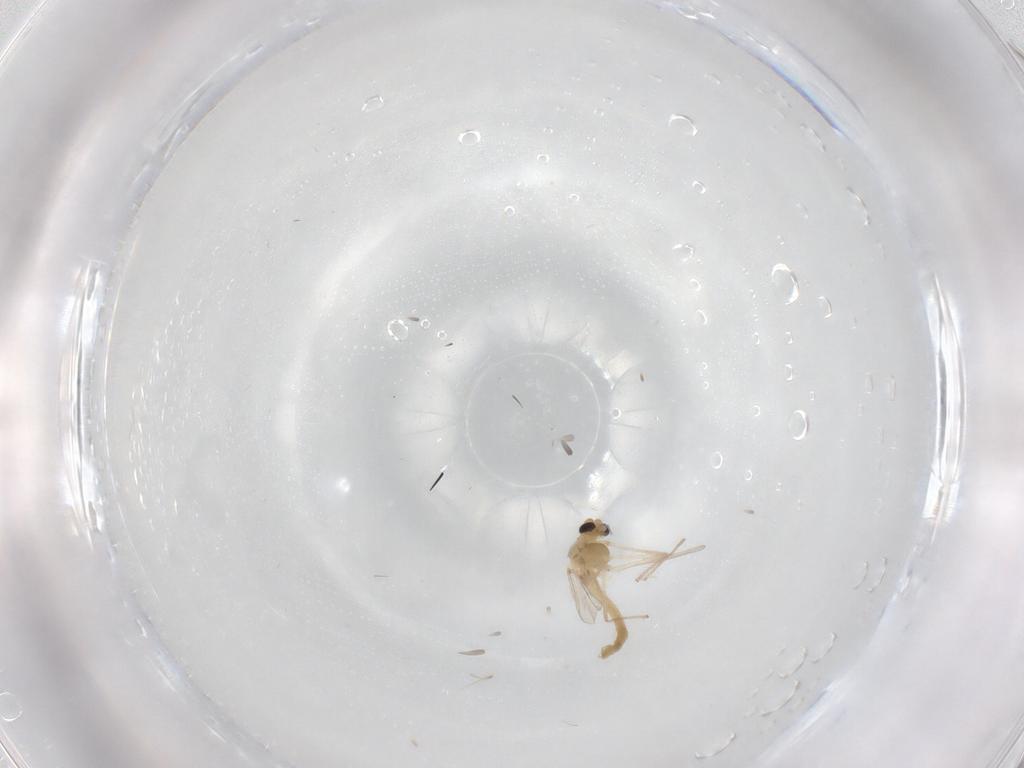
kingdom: Animalia
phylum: Arthropoda
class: Insecta
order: Diptera
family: Chironomidae
